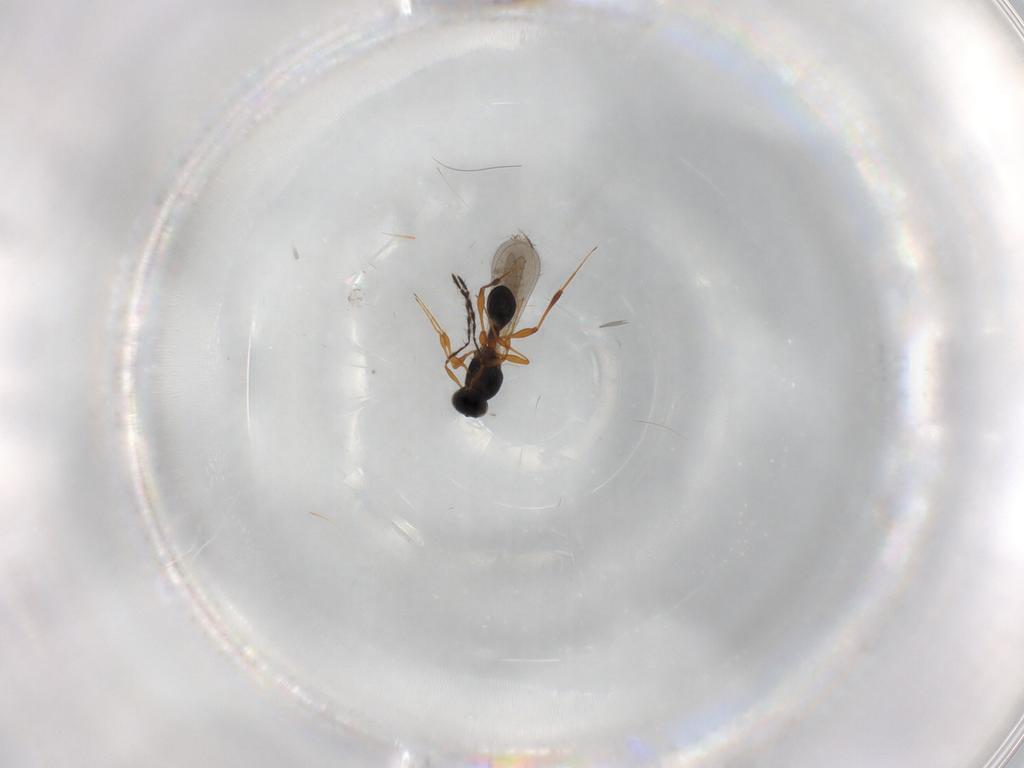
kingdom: Animalia
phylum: Arthropoda
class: Insecta
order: Hymenoptera
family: Platygastridae
